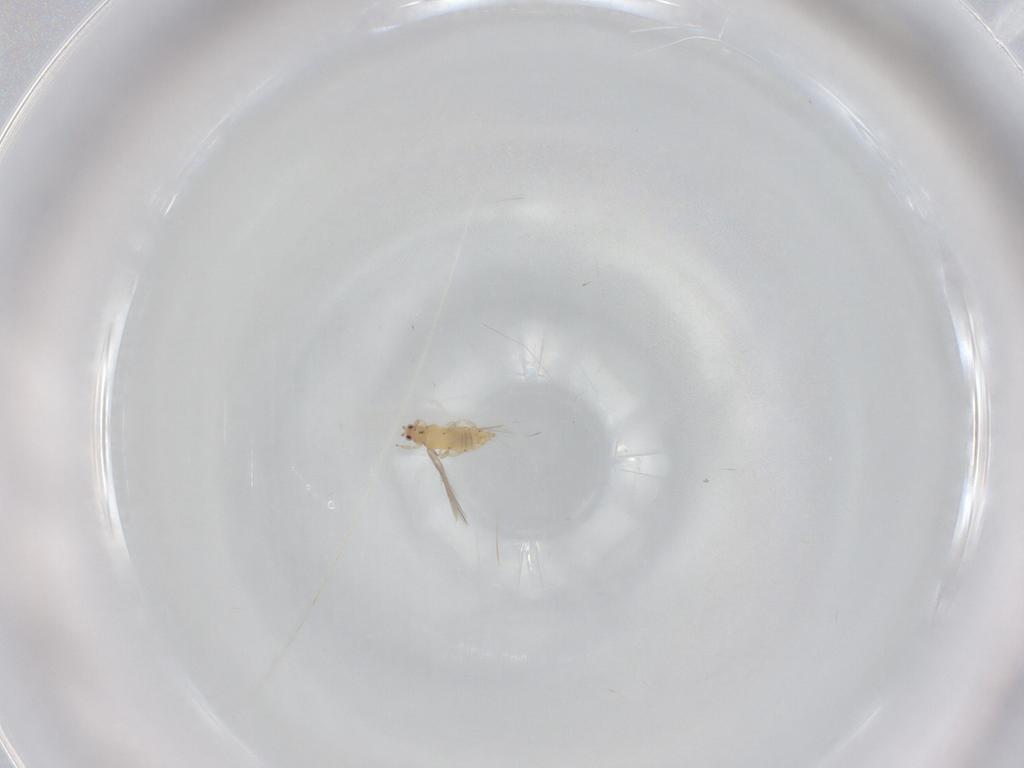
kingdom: Animalia
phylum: Arthropoda
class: Insecta
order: Thysanoptera
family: Thripidae
